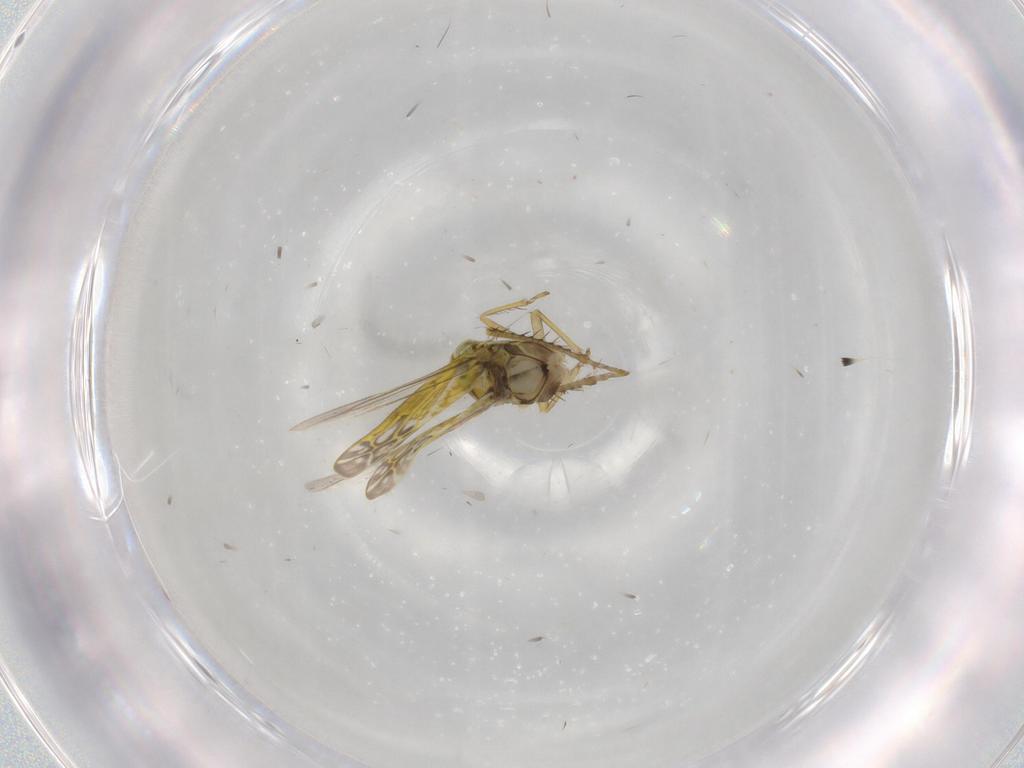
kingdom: Animalia
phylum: Arthropoda
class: Insecta
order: Hemiptera
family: Cicadellidae
